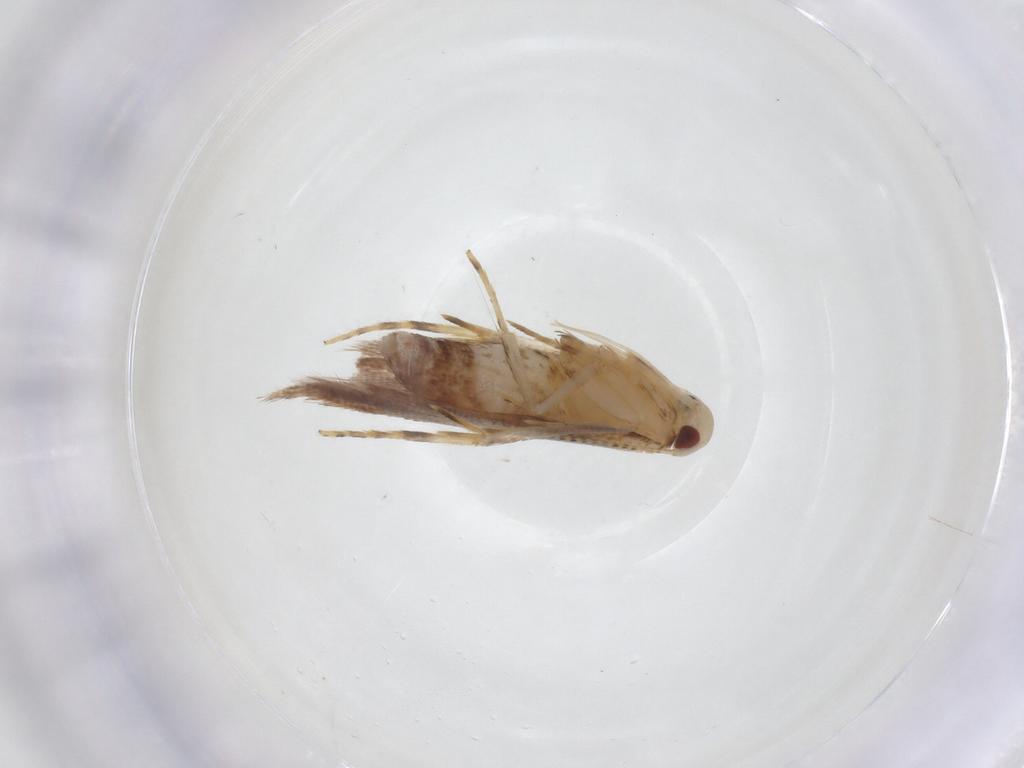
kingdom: Animalia
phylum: Arthropoda
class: Insecta
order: Lepidoptera
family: Cosmopterigidae
